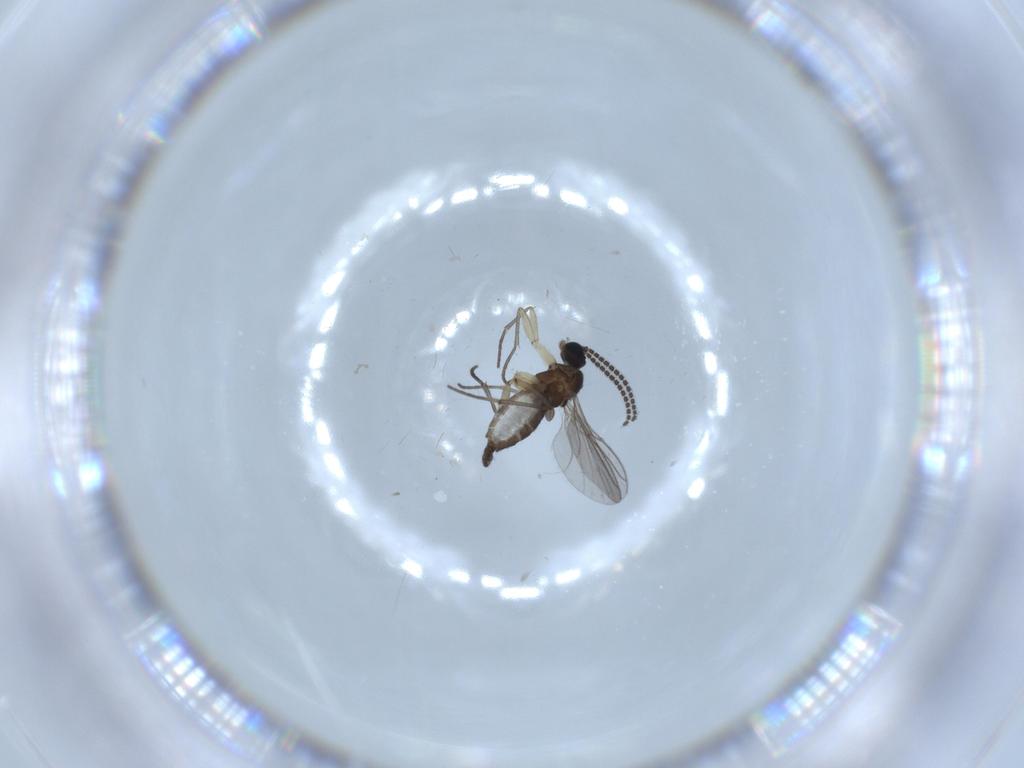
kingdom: Animalia
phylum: Arthropoda
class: Insecta
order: Diptera
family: Sciaridae
